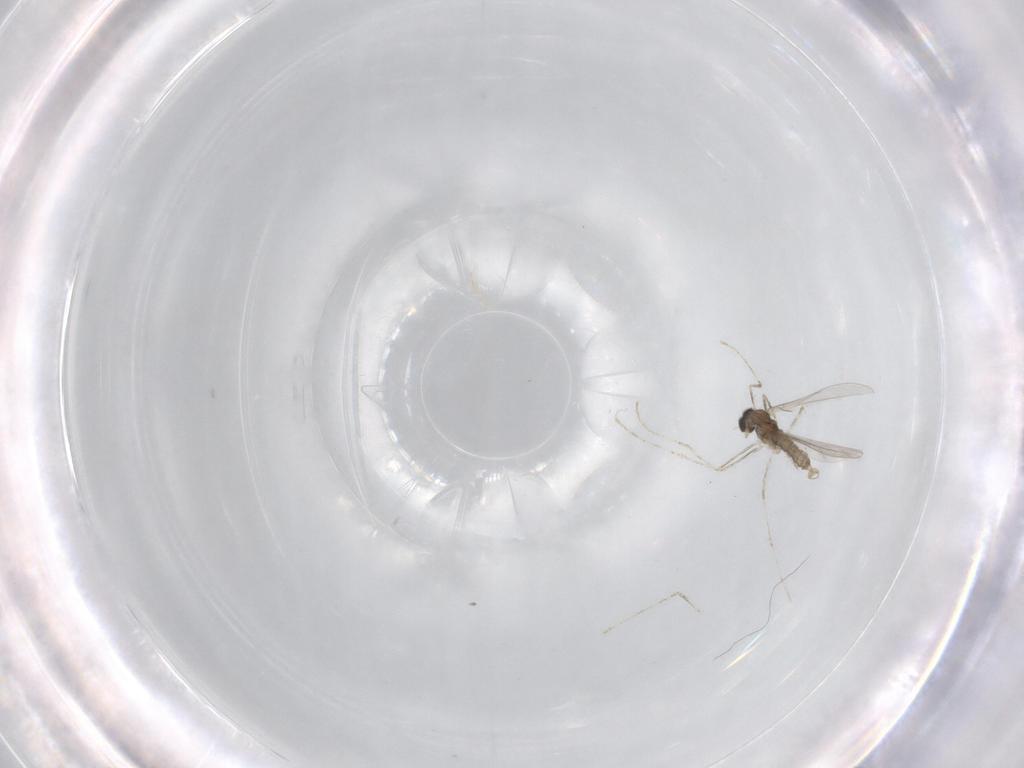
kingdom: Animalia
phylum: Arthropoda
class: Insecta
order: Diptera
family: Cecidomyiidae
